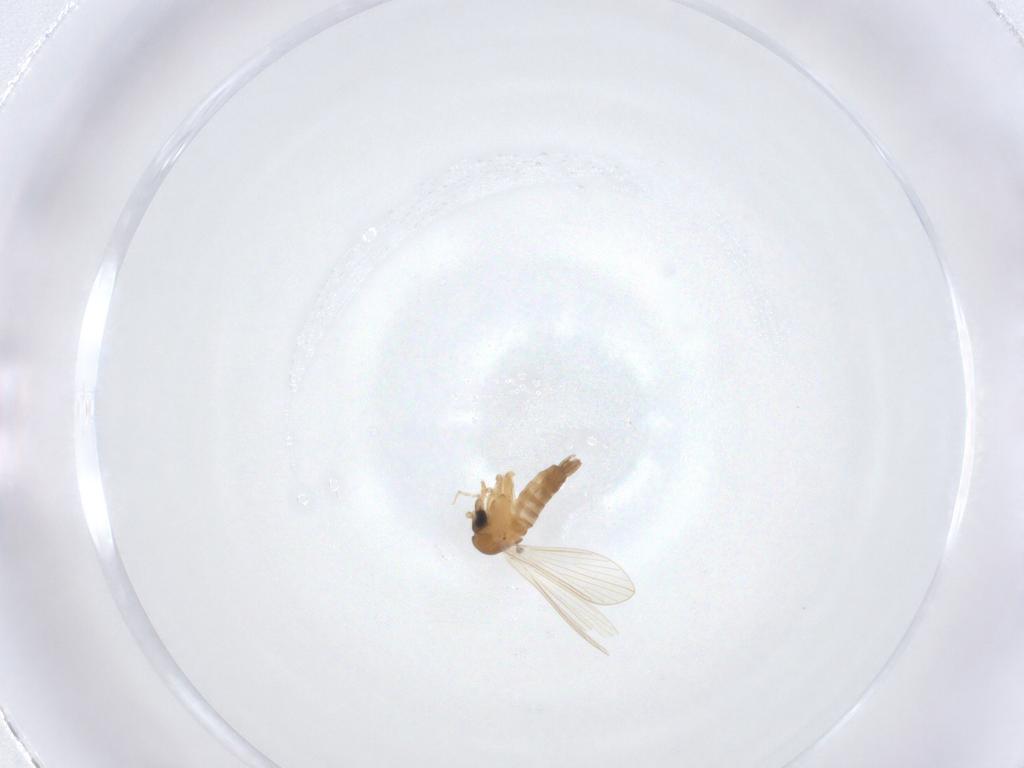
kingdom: Animalia
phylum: Arthropoda
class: Insecta
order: Diptera
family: Psychodidae
